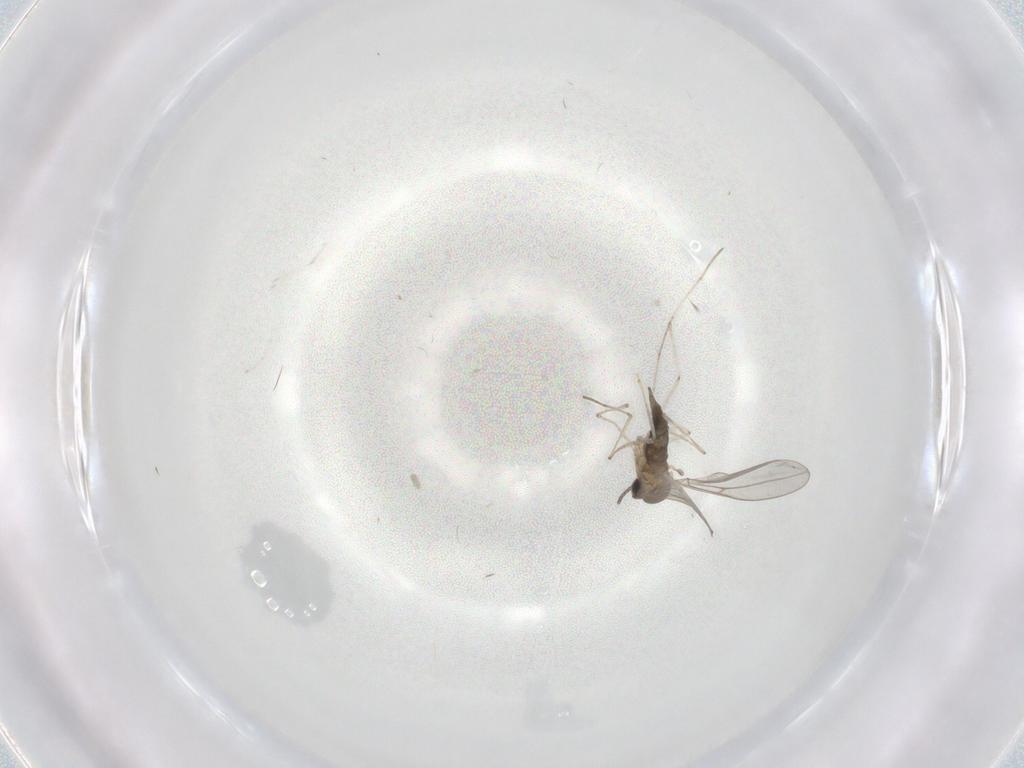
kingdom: Animalia
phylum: Arthropoda
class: Insecta
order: Diptera
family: Cecidomyiidae
